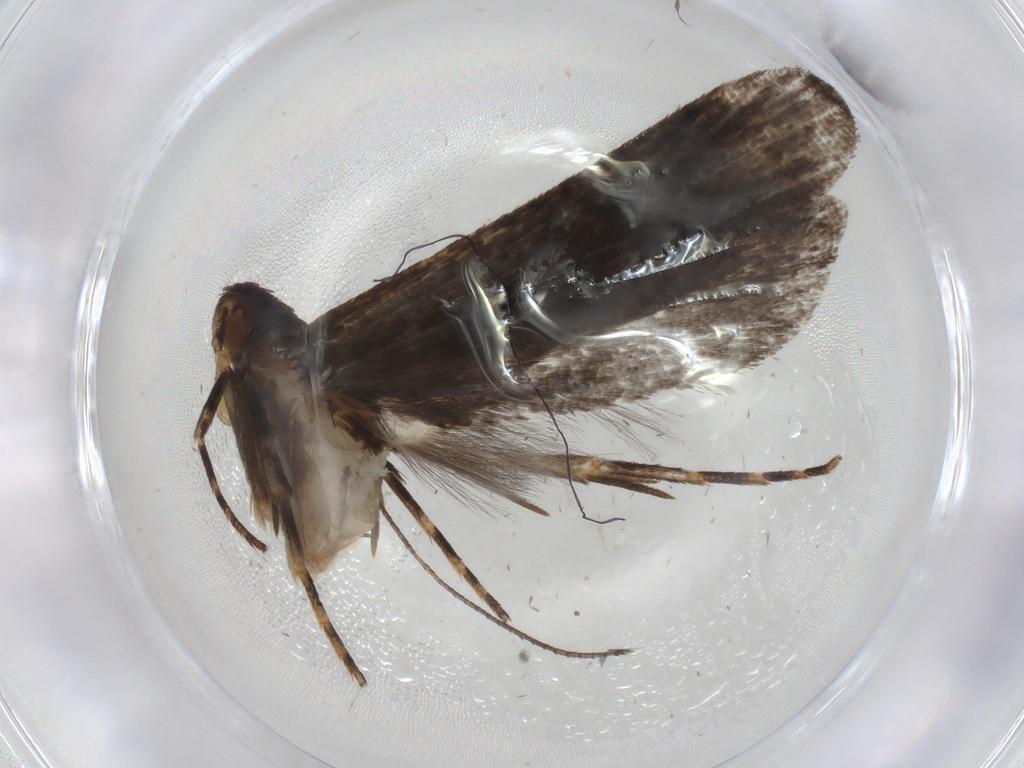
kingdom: Animalia
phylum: Arthropoda
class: Insecta
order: Lepidoptera
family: Gelechiidae
